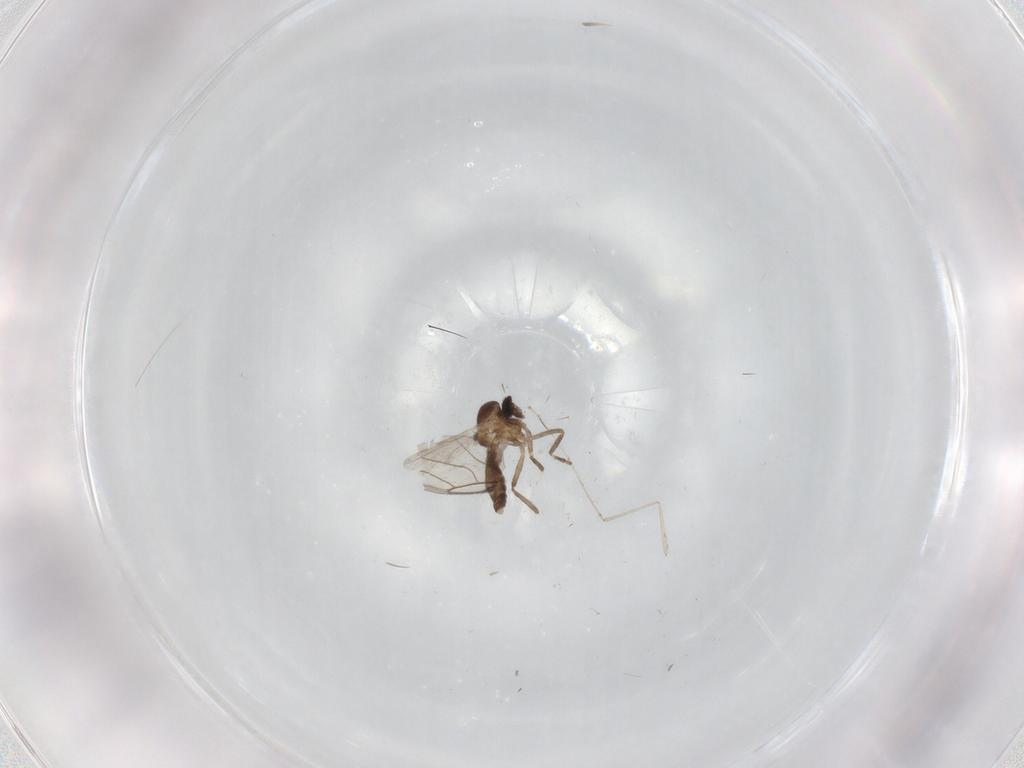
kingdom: Animalia
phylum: Arthropoda
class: Insecta
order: Diptera
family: Ceratopogonidae
